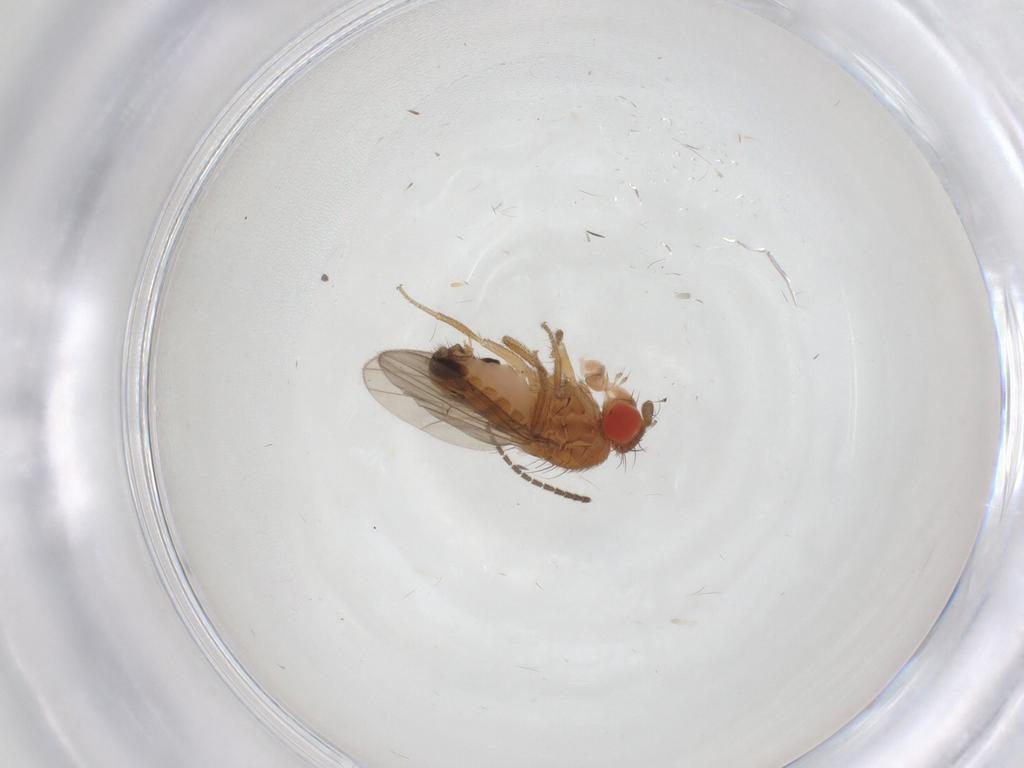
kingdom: Animalia
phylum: Arthropoda
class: Insecta
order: Diptera
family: Drosophilidae
